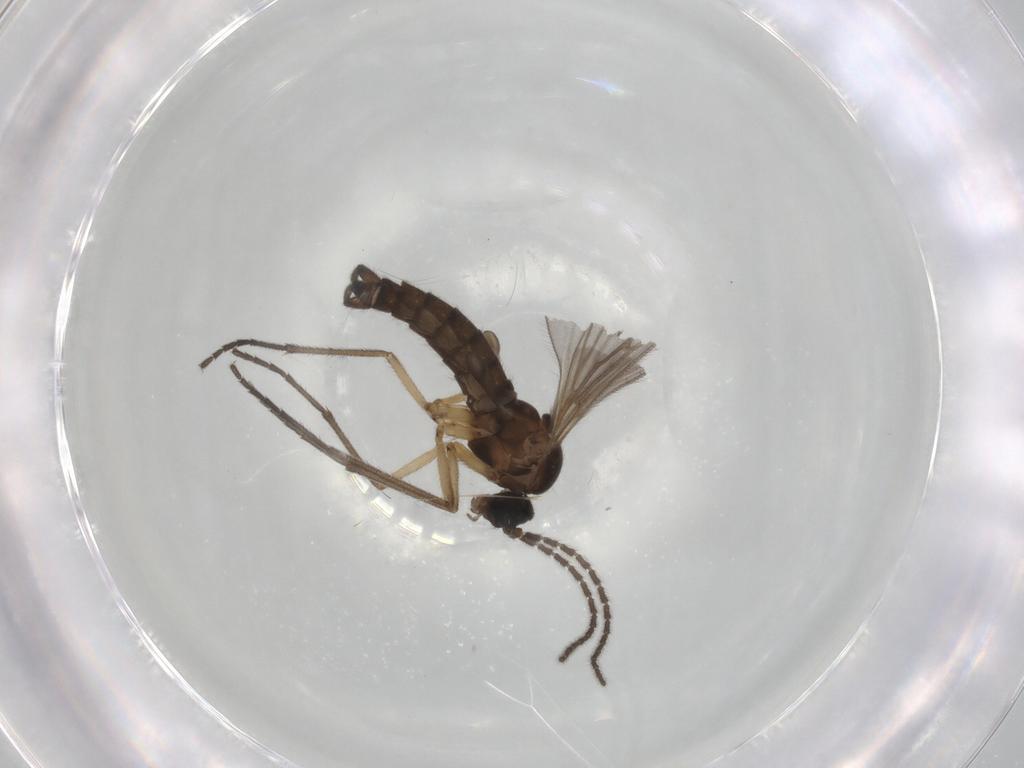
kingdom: Animalia
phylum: Arthropoda
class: Insecta
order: Diptera
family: Sciaridae
